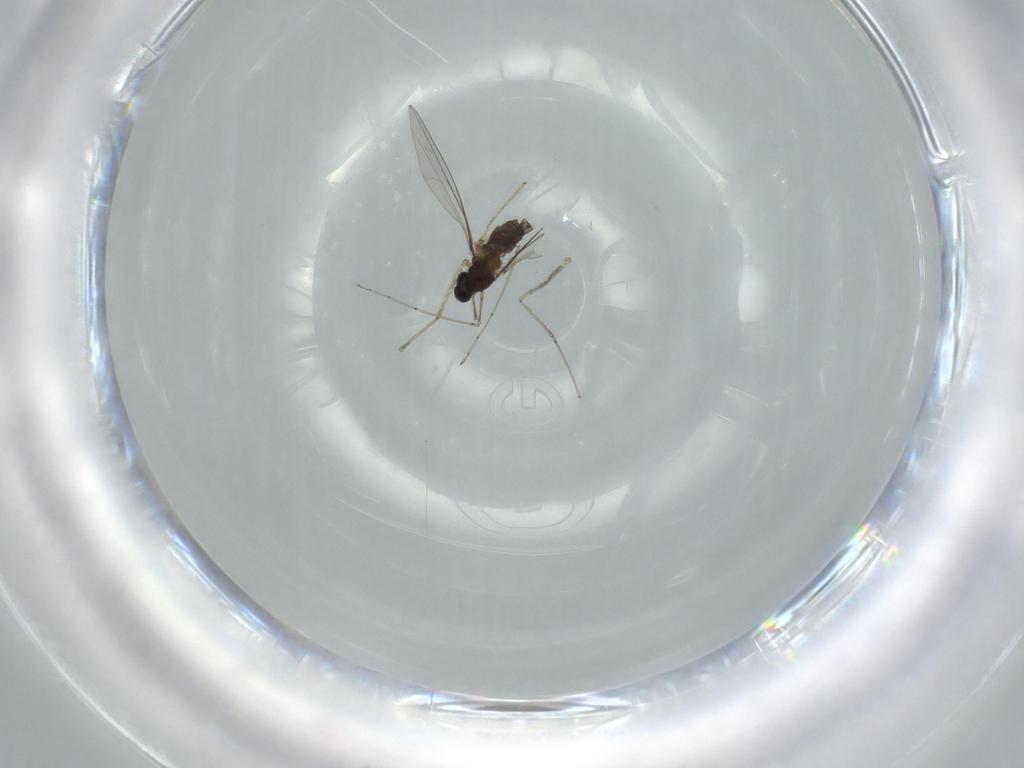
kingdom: Animalia
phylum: Arthropoda
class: Insecta
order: Diptera
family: Cecidomyiidae
